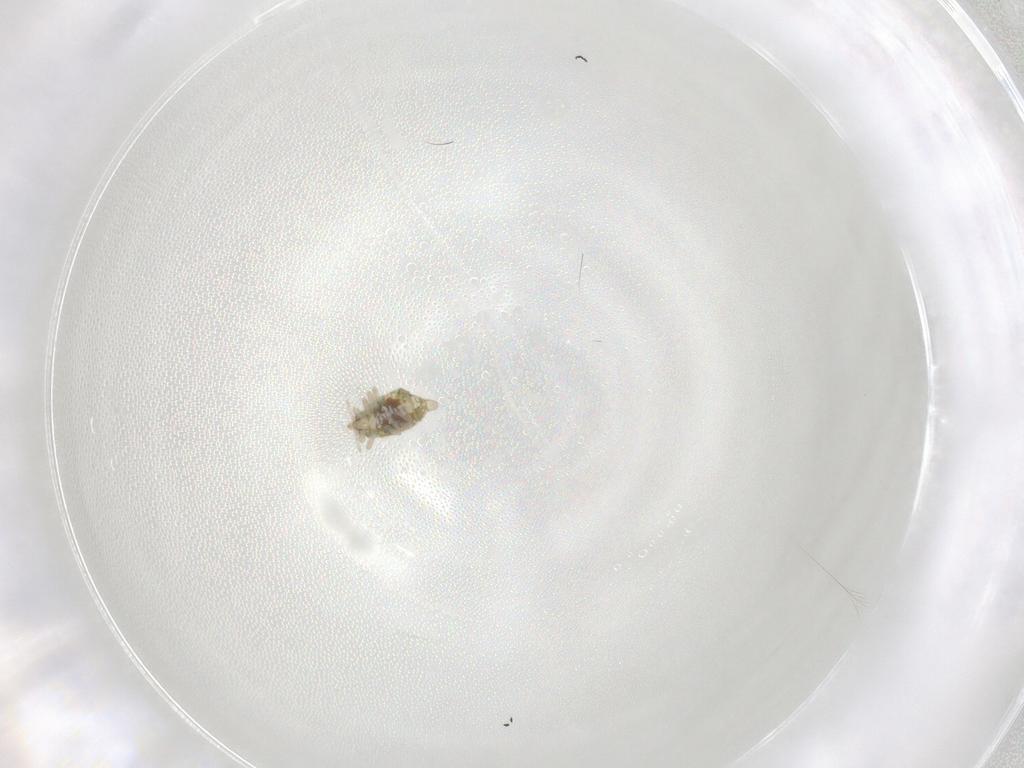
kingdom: Animalia
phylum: Arthropoda
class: Insecta
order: Neuroptera
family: Coniopterygidae
